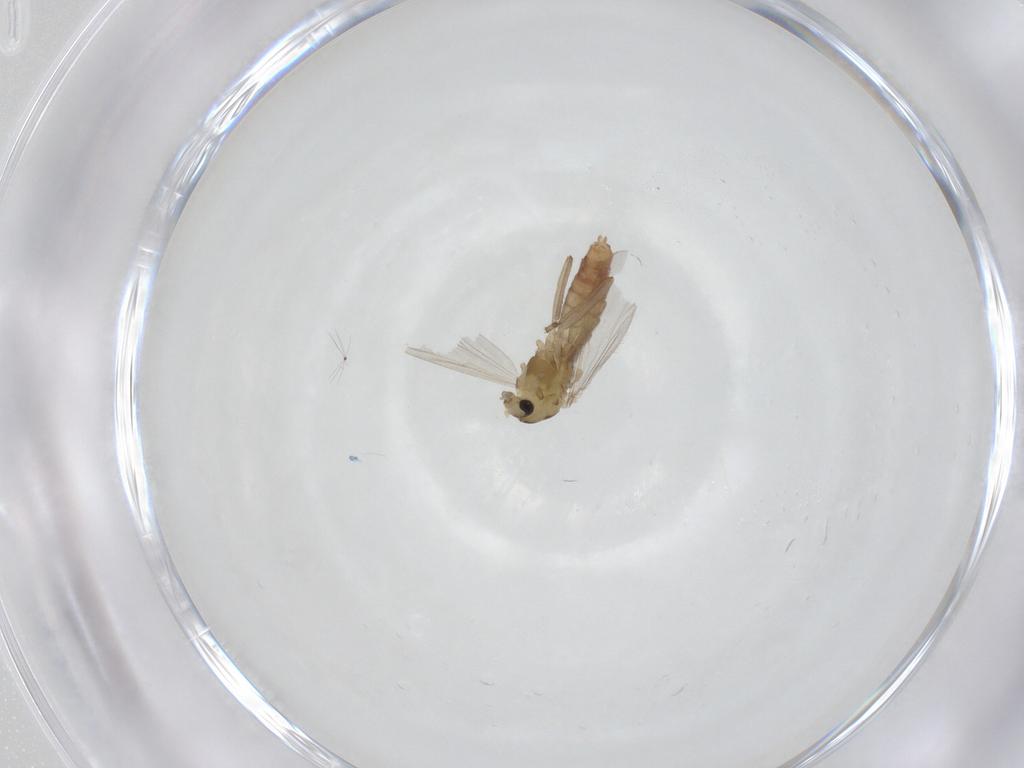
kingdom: Animalia
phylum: Arthropoda
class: Insecta
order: Diptera
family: Chironomidae
